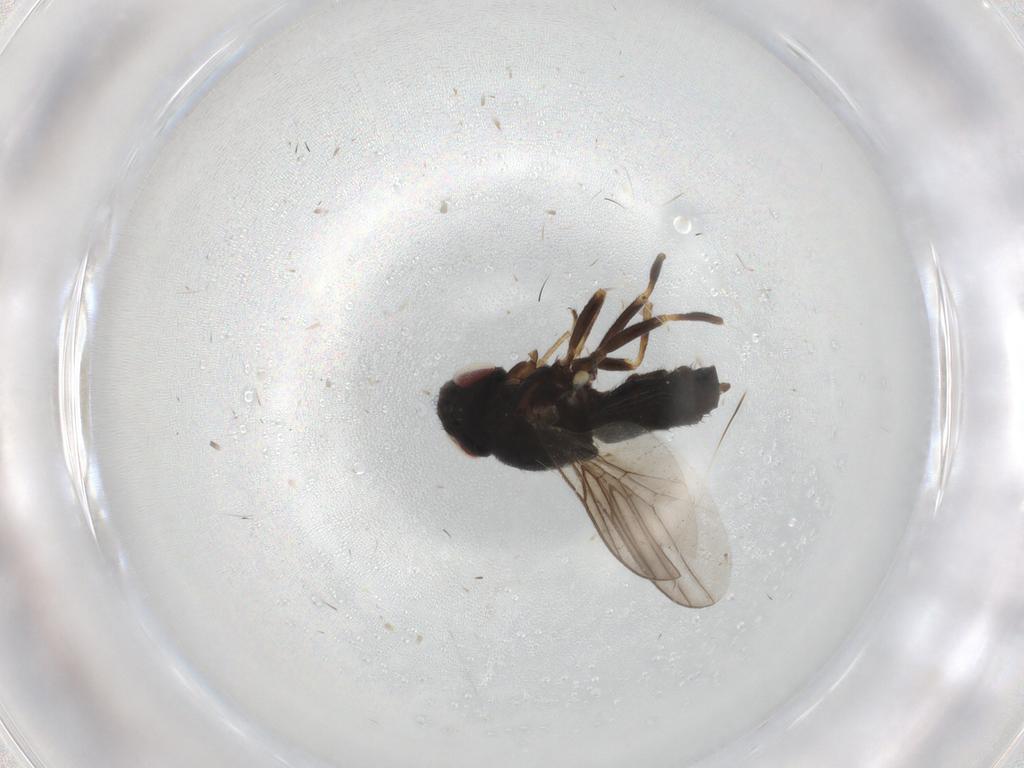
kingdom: Animalia
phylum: Arthropoda
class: Insecta
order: Diptera
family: Chloropidae
